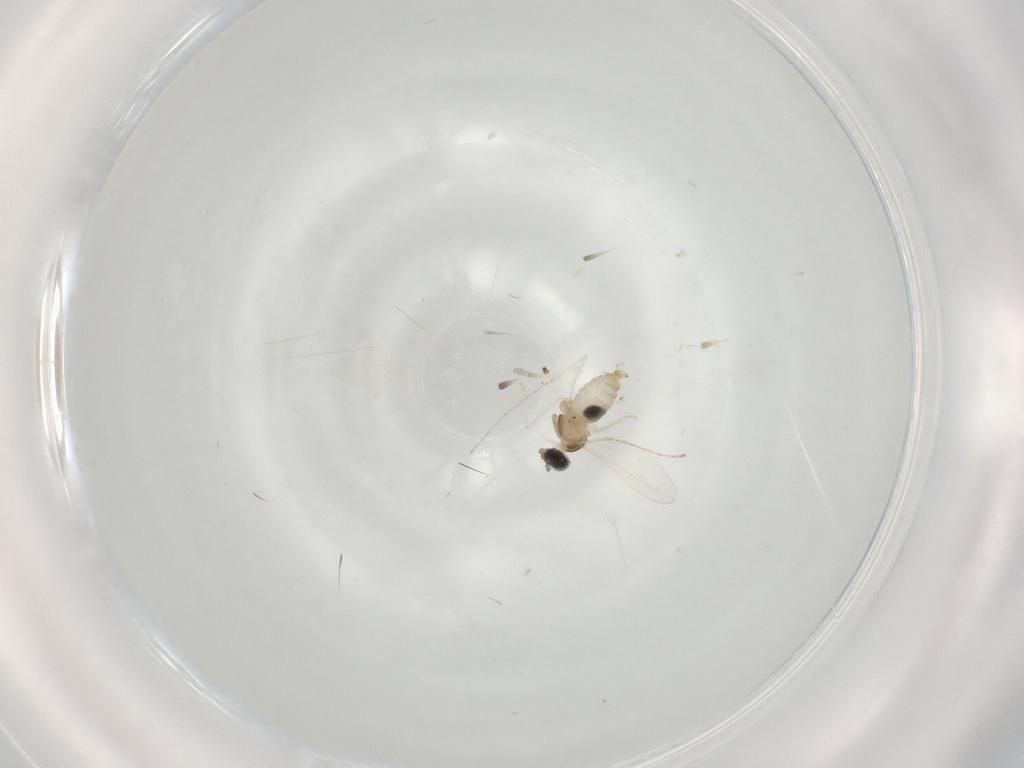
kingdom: Animalia
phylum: Arthropoda
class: Insecta
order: Diptera
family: Cecidomyiidae
